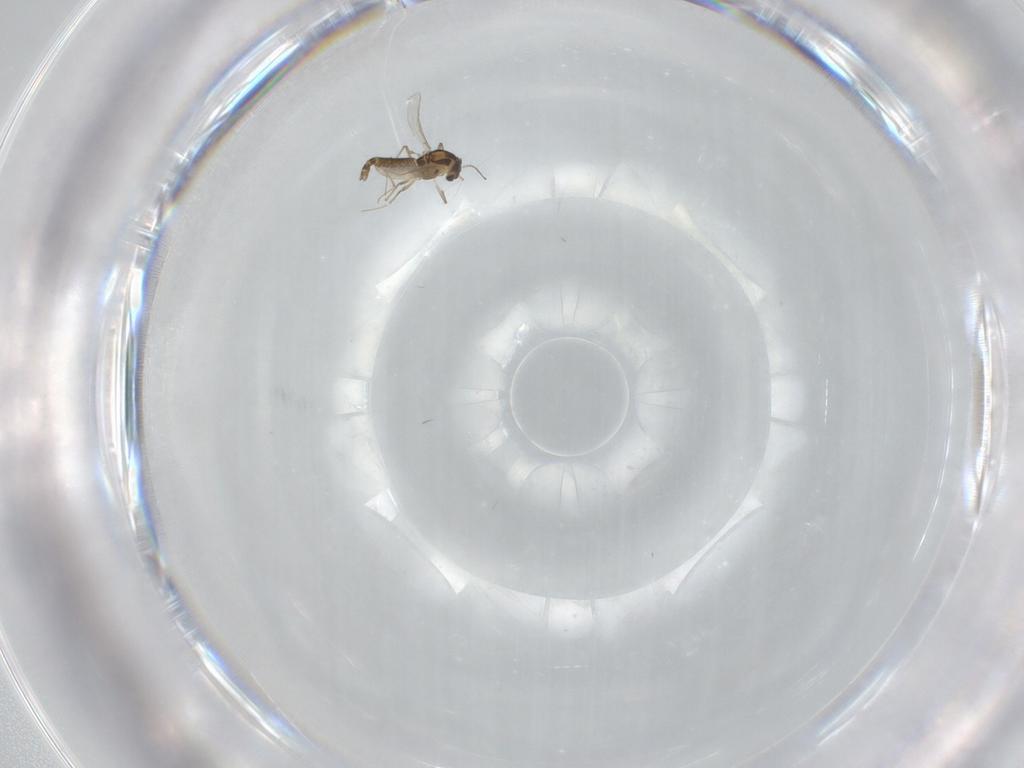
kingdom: Animalia
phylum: Arthropoda
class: Insecta
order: Diptera
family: Chironomidae
